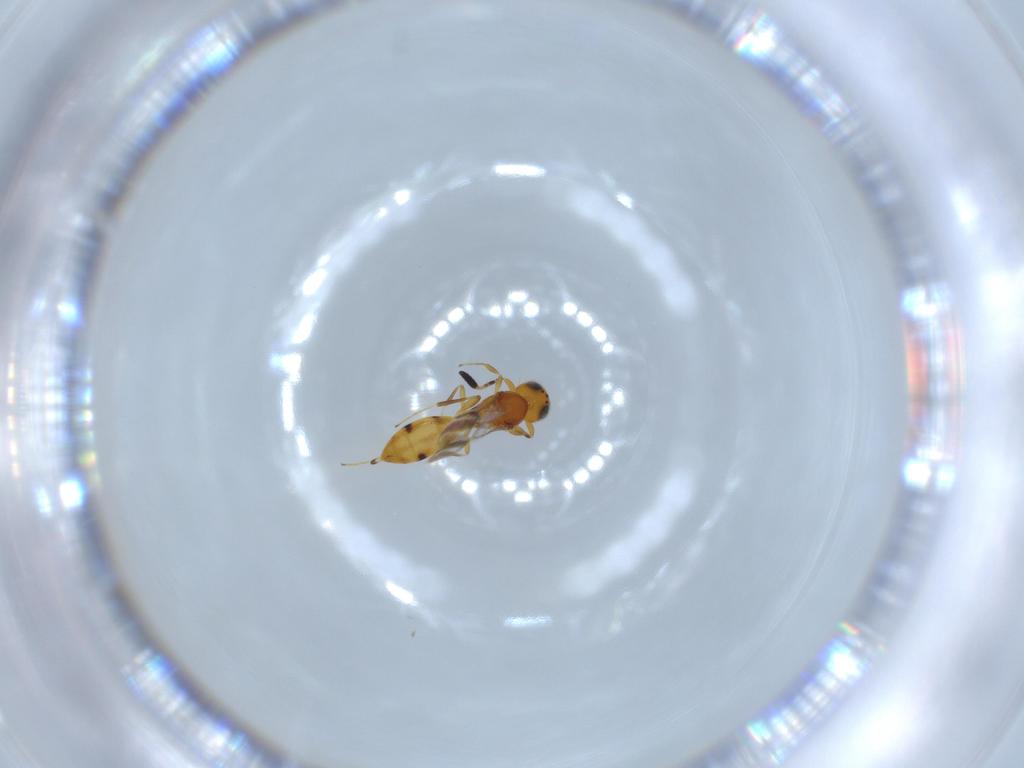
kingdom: Animalia
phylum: Arthropoda
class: Insecta
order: Hymenoptera
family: Scelionidae
